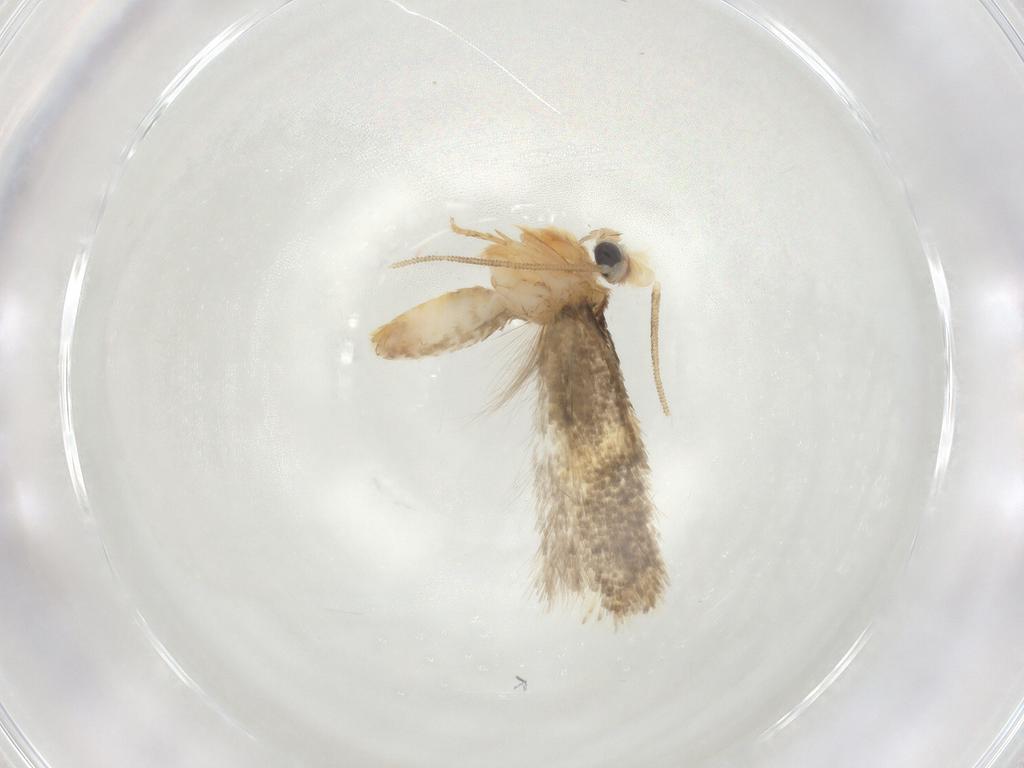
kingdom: Animalia
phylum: Arthropoda
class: Insecta
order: Lepidoptera
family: Nepticulidae
